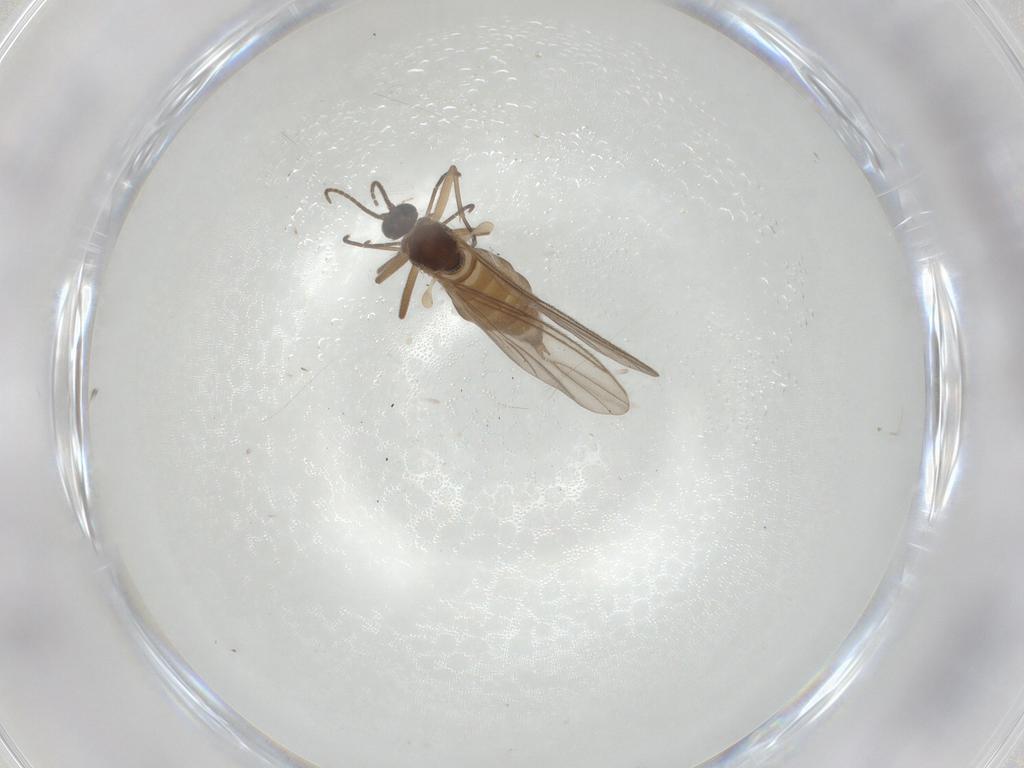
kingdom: Animalia
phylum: Arthropoda
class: Insecta
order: Diptera
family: Sciaridae
